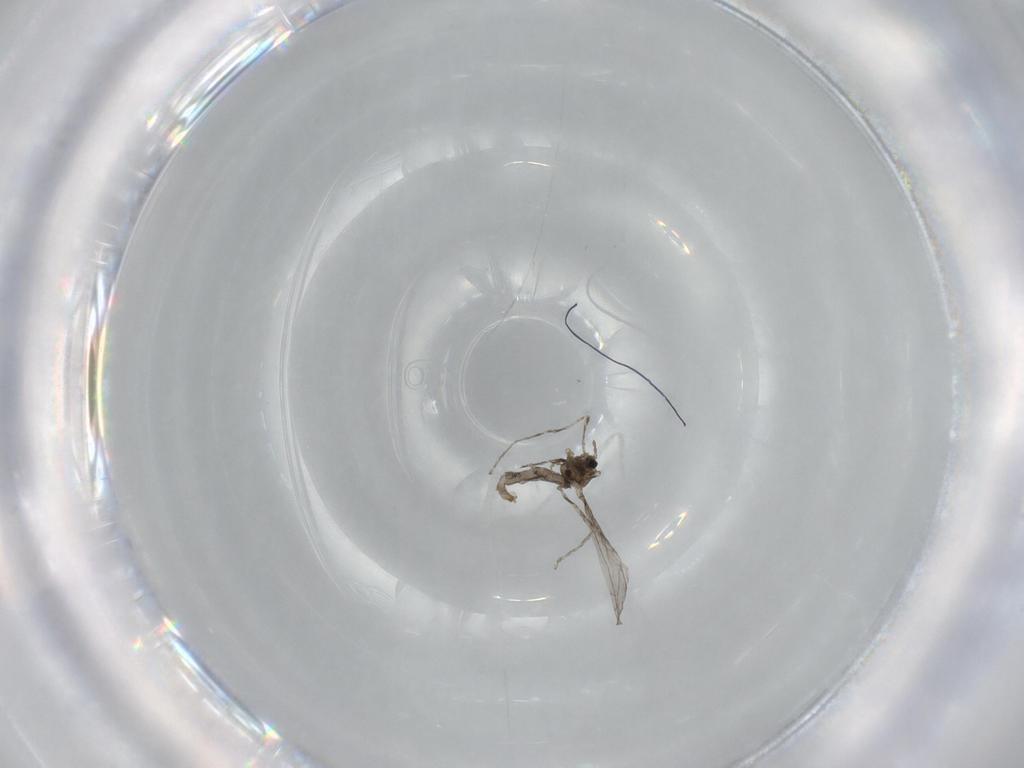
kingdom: Animalia
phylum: Arthropoda
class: Insecta
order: Diptera
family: Cecidomyiidae
